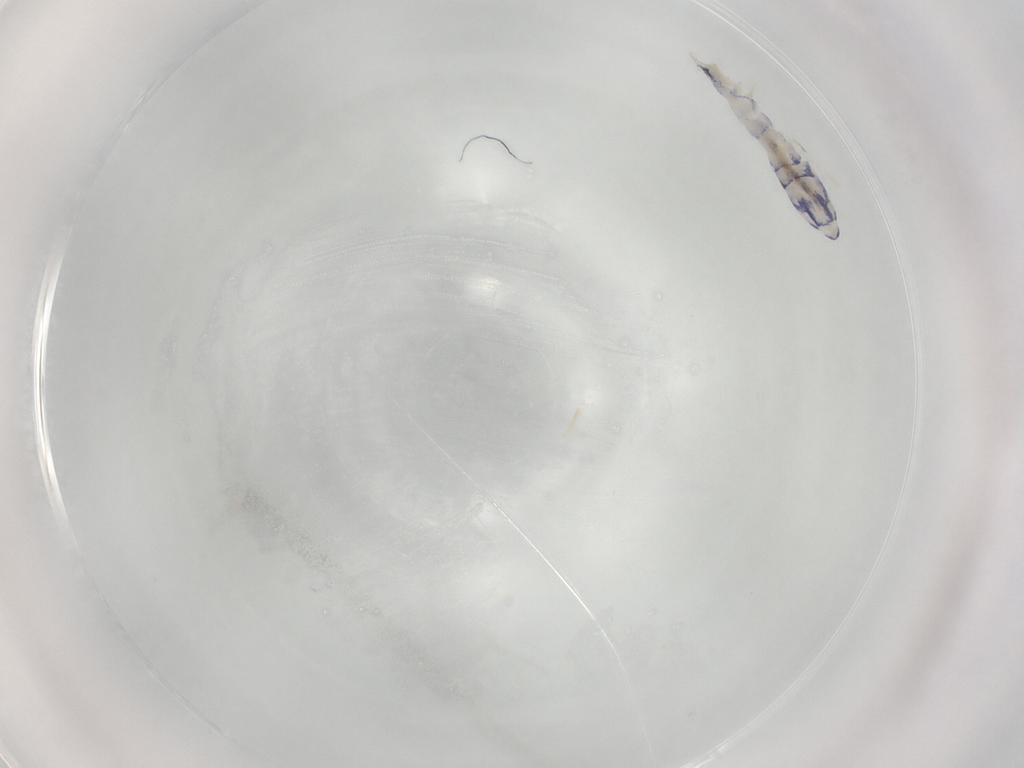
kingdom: Animalia
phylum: Arthropoda
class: Collembola
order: Entomobryomorpha
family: Entomobryidae
